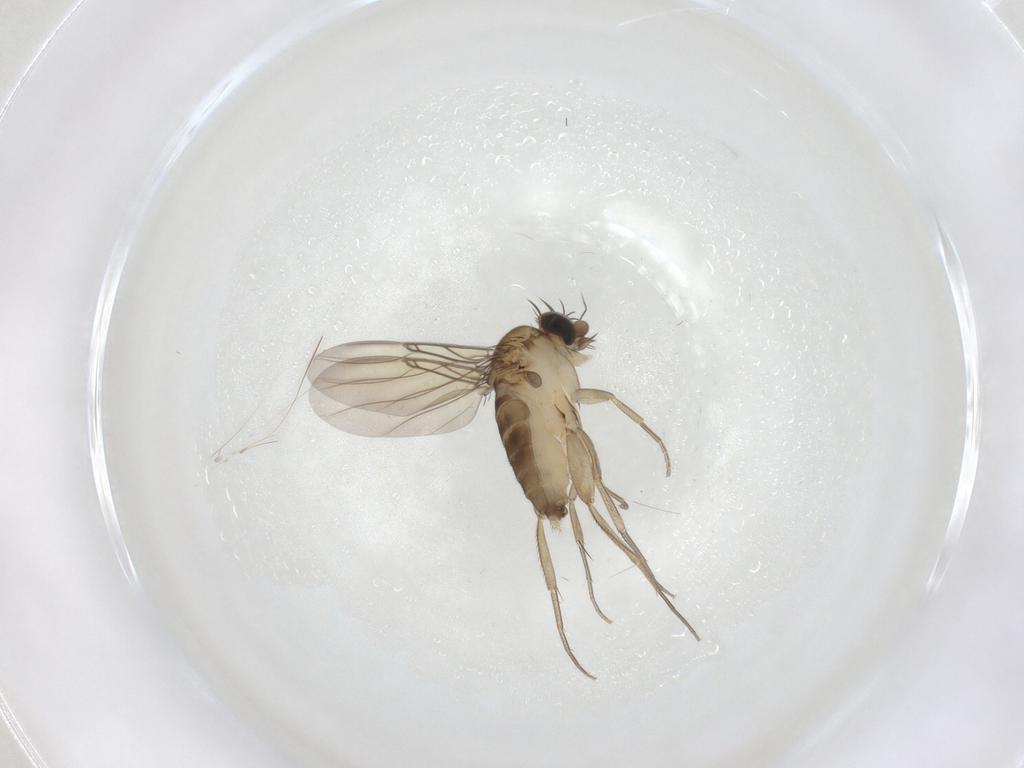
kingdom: Animalia
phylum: Arthropoda
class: Insecta
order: Diptera
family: Phoridae
